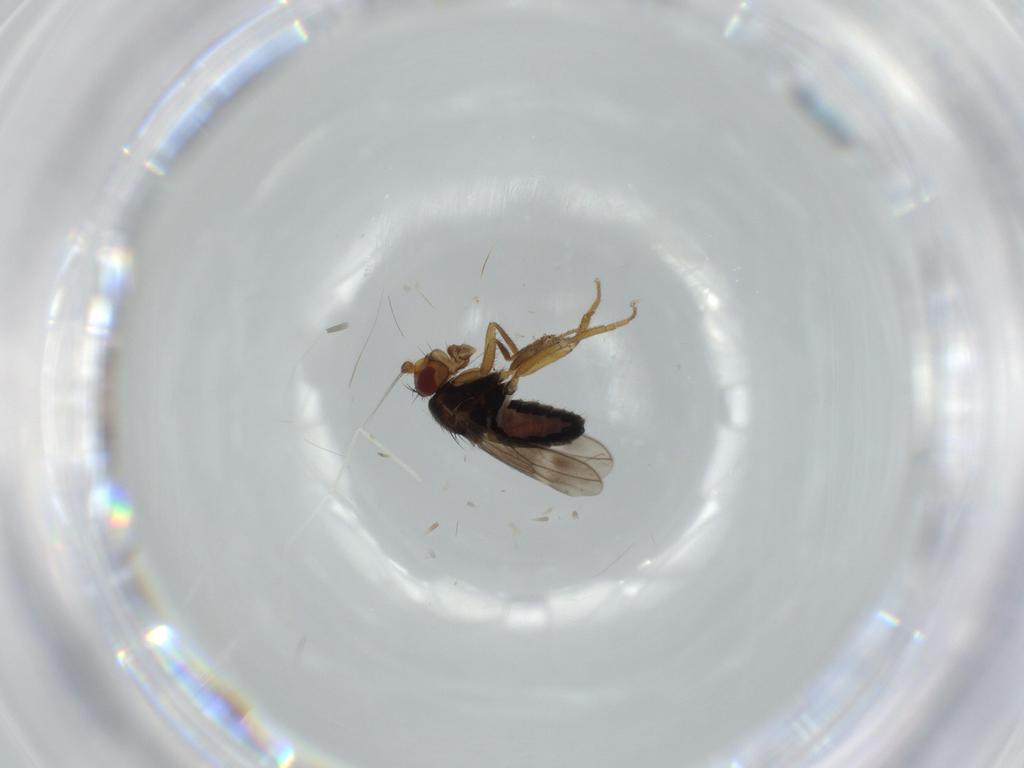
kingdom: Animalia
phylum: Arthropoda
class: Insecta
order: Diptera
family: Sphaeroceridae
